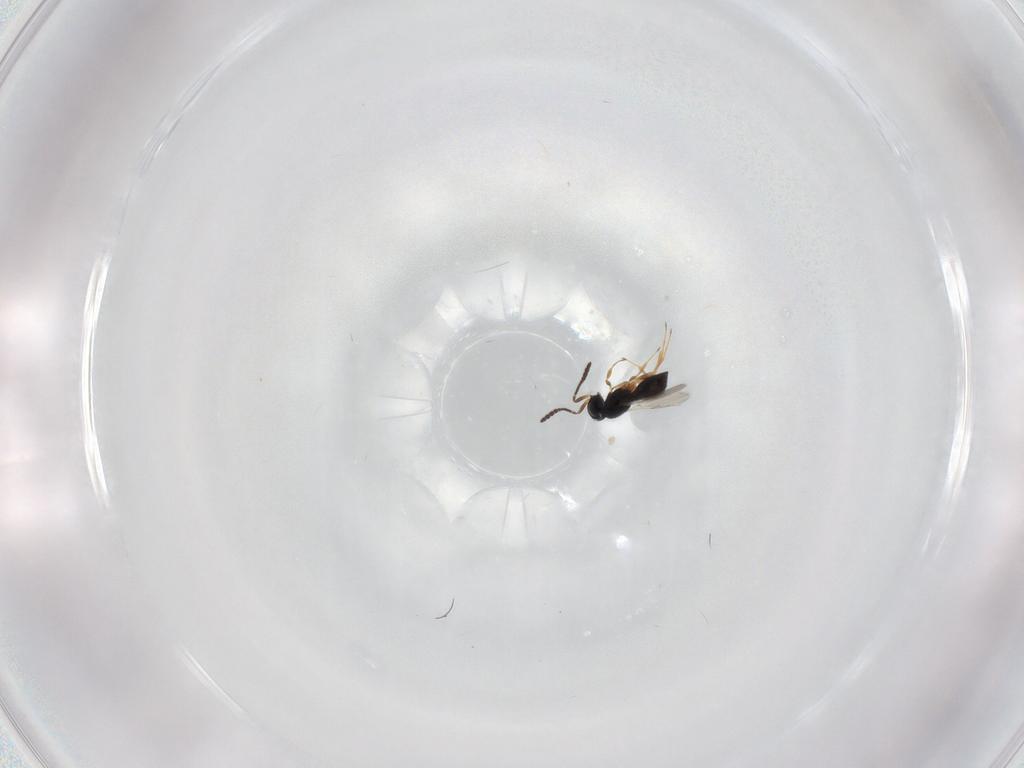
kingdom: Animalia
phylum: Arthropoda
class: Insecta
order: Hymenoptera
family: Scelionidae
